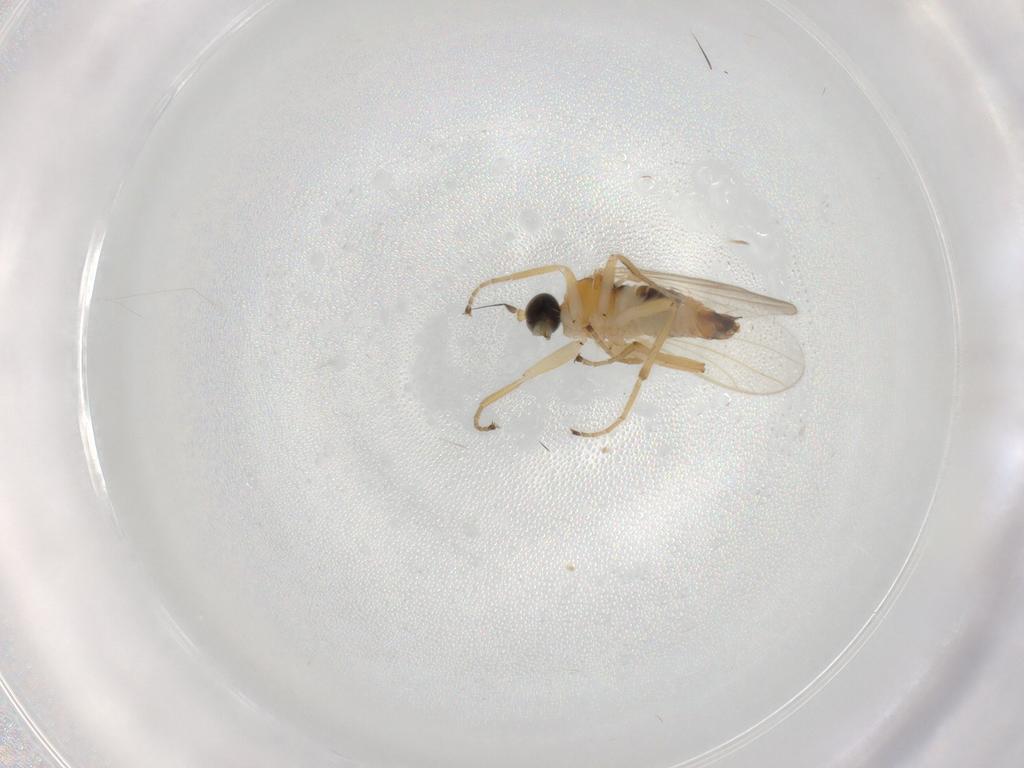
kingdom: Animalia
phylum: Arthropoda
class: Insecta
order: Diptera
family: Hybotidae
